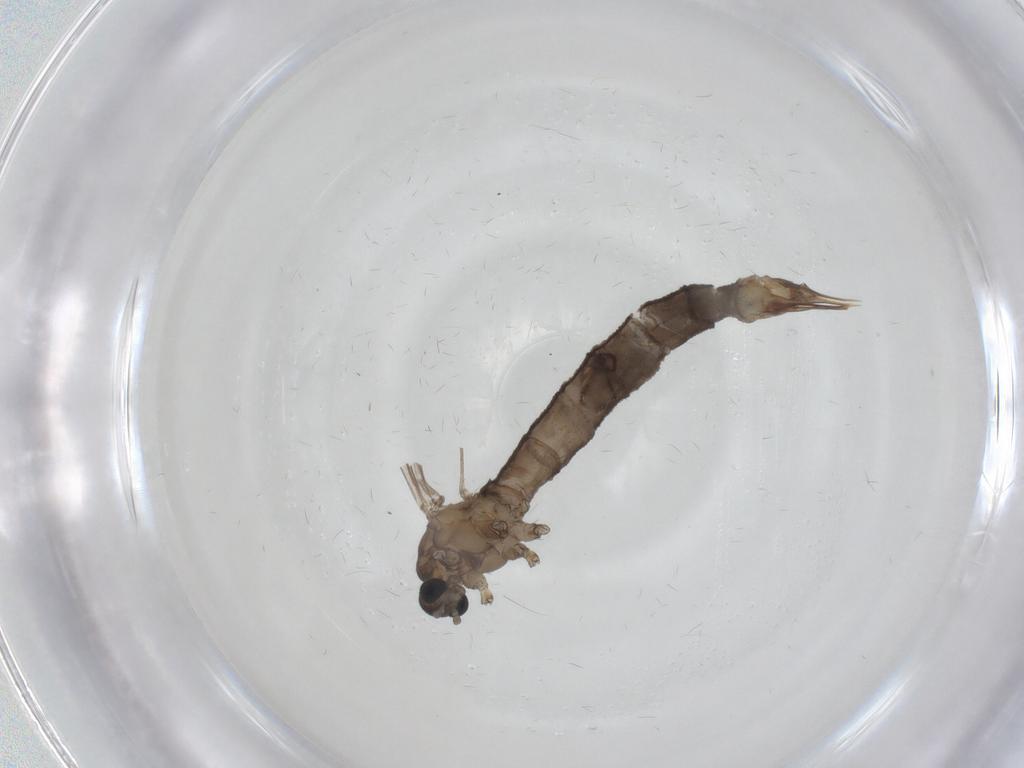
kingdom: Animalia
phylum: Arthropoda
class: Insecta
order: Diptera
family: Limoniidae
